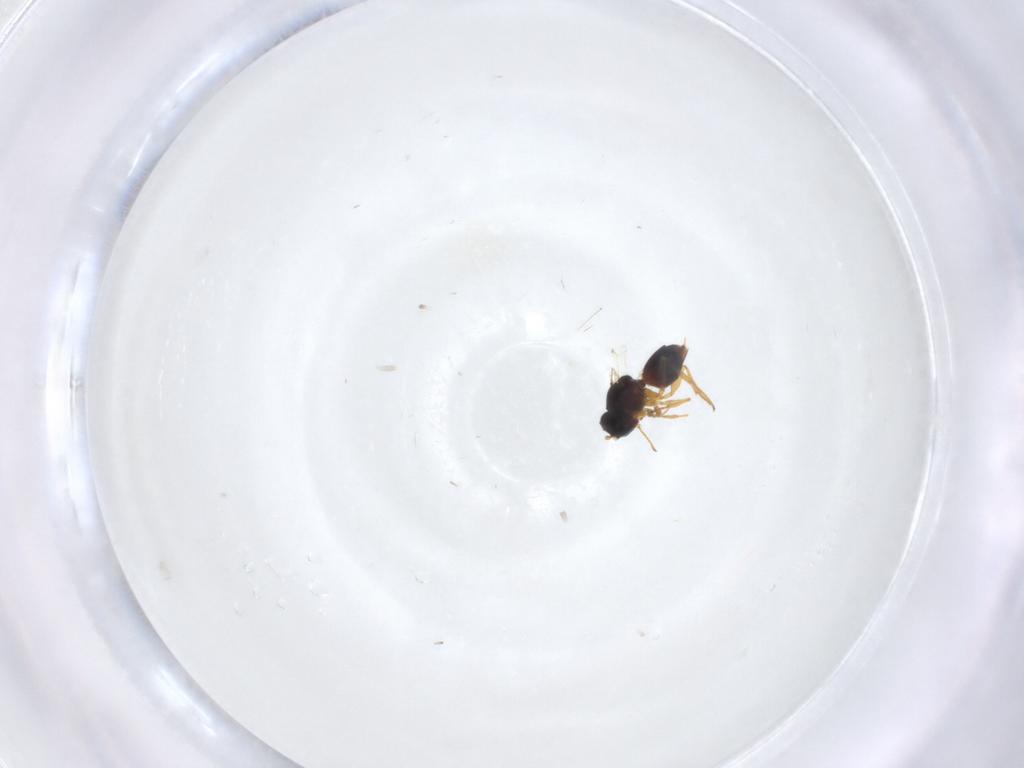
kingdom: Animalia
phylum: Arthropoda
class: Insecta
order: Hymenoptera
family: Figitidae
